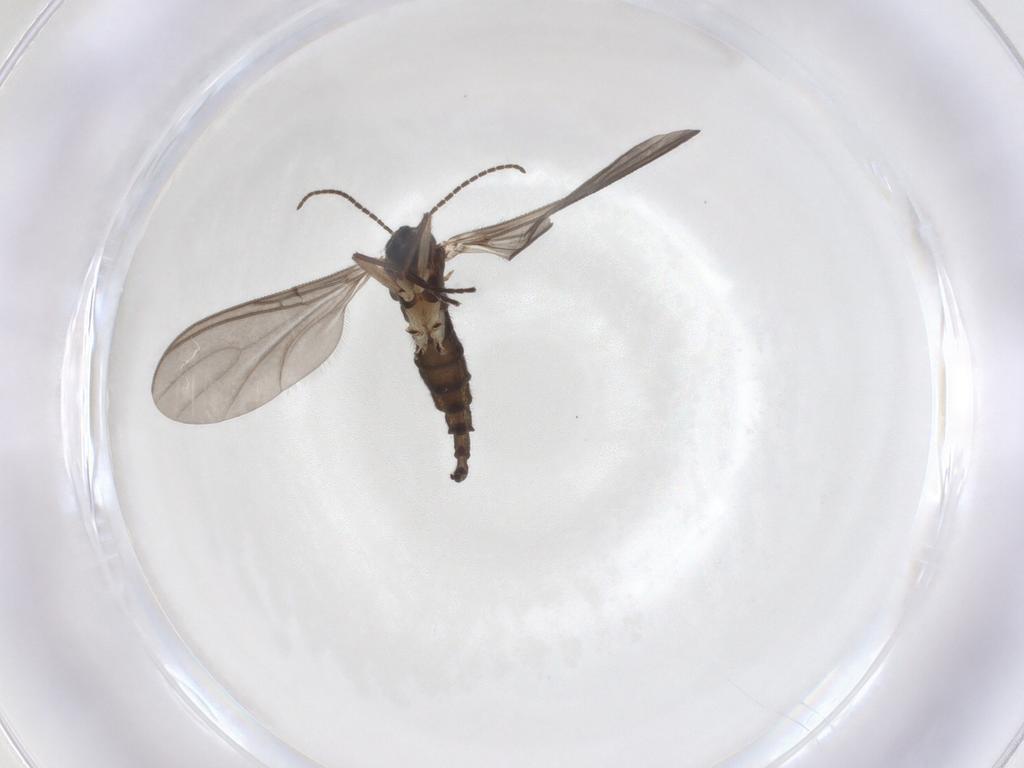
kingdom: Animalia
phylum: Arthropoda
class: Insecta
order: Diptera
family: Sciaridae
